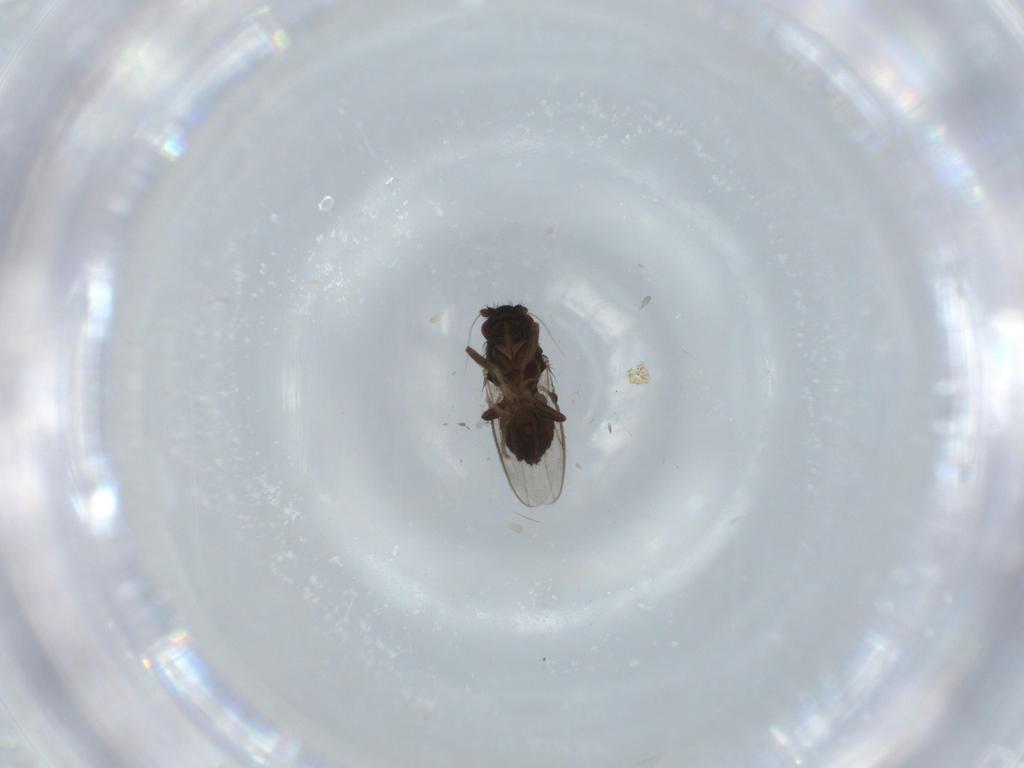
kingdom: Animalia
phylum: Arthropoda
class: Insecta
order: Diptera
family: Sphaeroceridae
